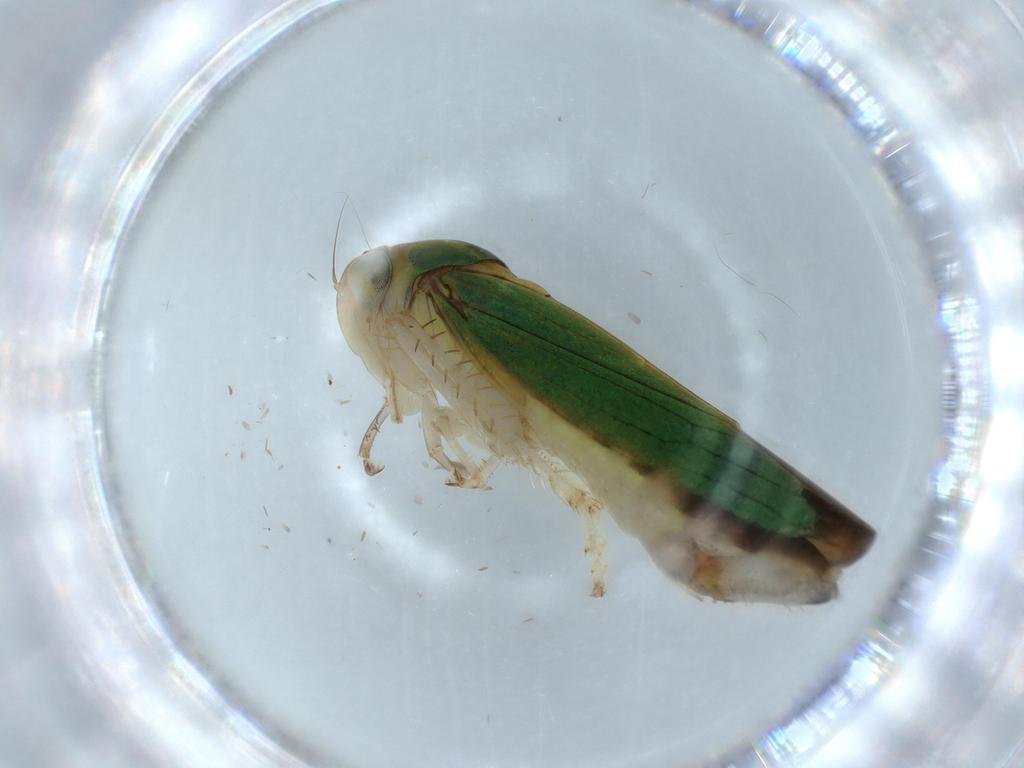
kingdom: Animalia
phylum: Arthropoda
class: Insecta
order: Hemiptera
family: Cicadellidae
